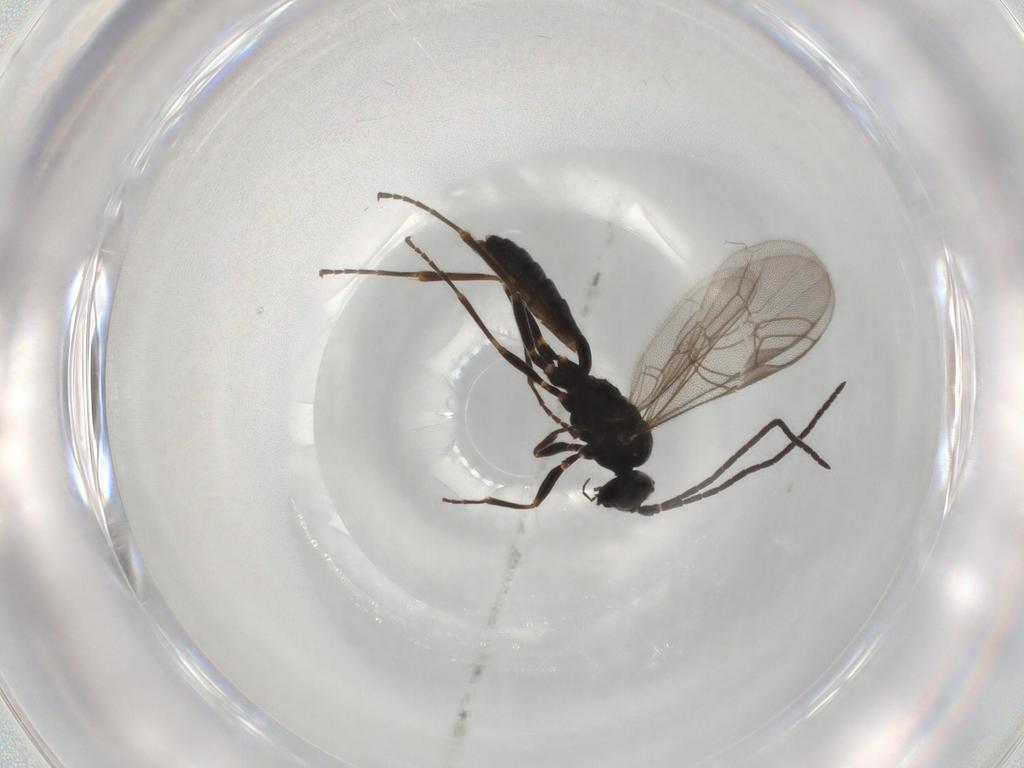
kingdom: Animalia
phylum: Arthropoda
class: Insecta
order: Hymenoptera
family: Ichneumonidae
